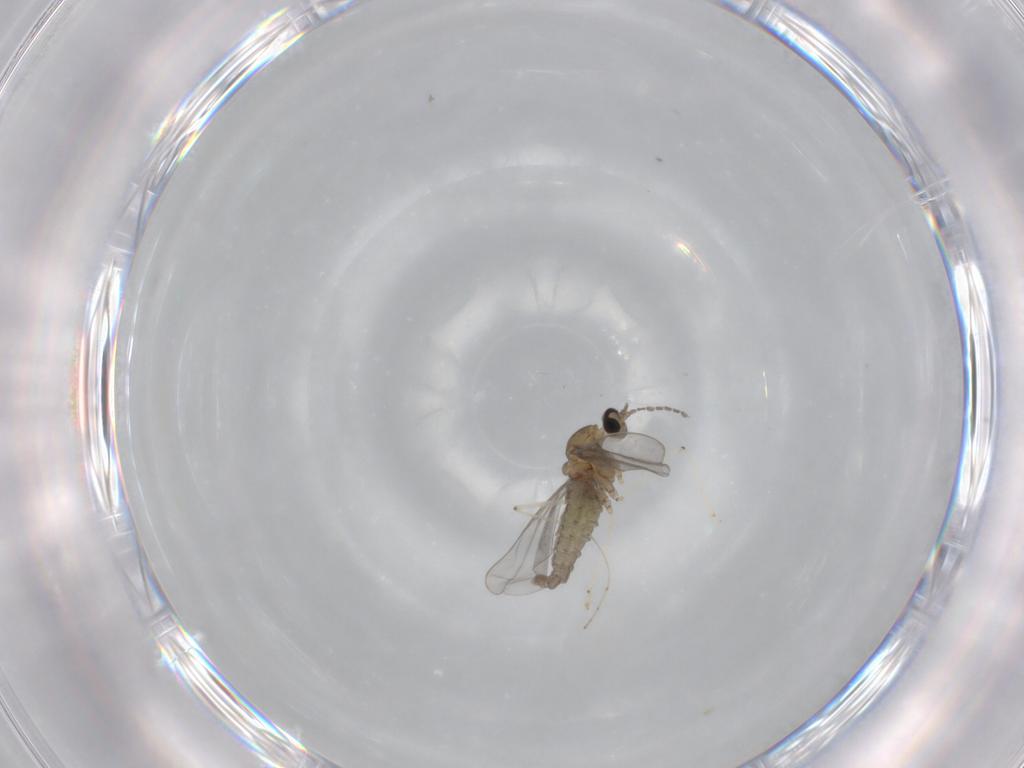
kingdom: Animalia
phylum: Arthropoda
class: Insecta
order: Diptera
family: Cecidomyiidae
